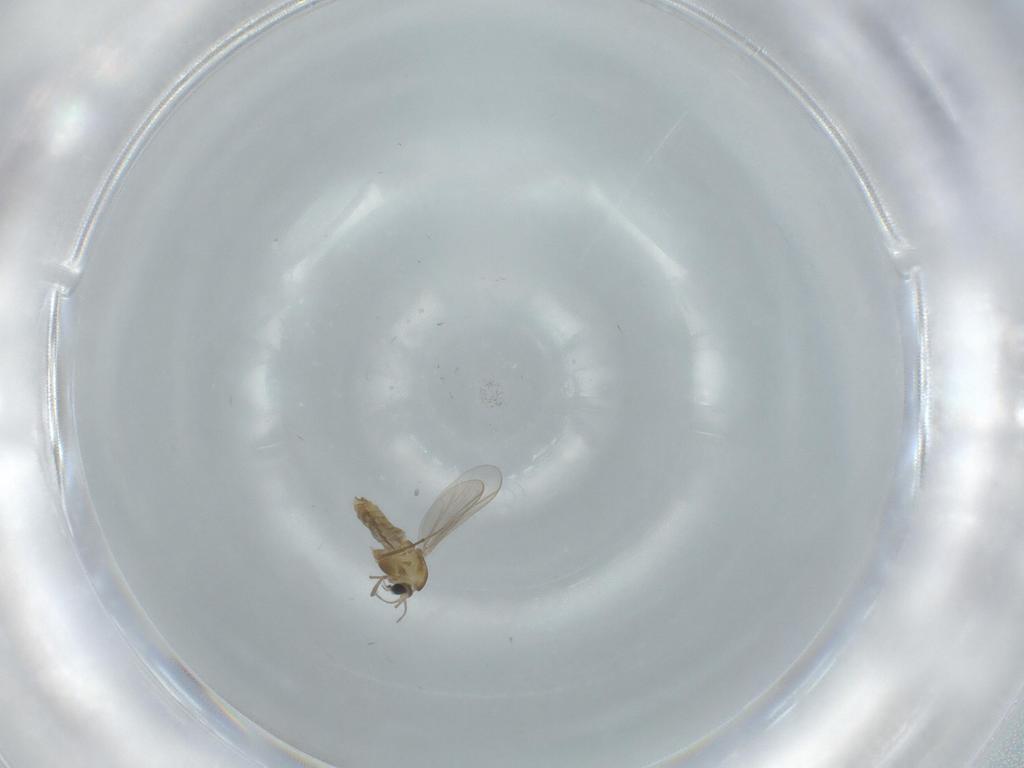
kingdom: Animalia
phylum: Arthropoda
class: Insecta
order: Diptera
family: Chironomidae
